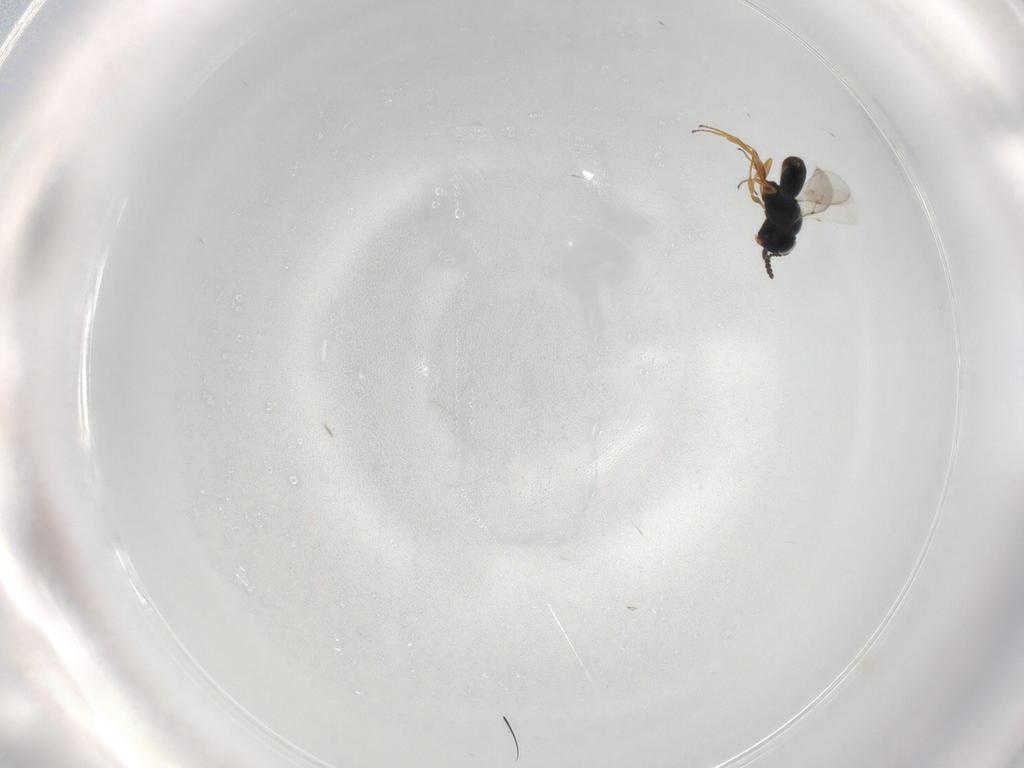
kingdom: Animalia
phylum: Arthropoda
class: Insecta
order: Hymenoptera
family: Scelionidae
